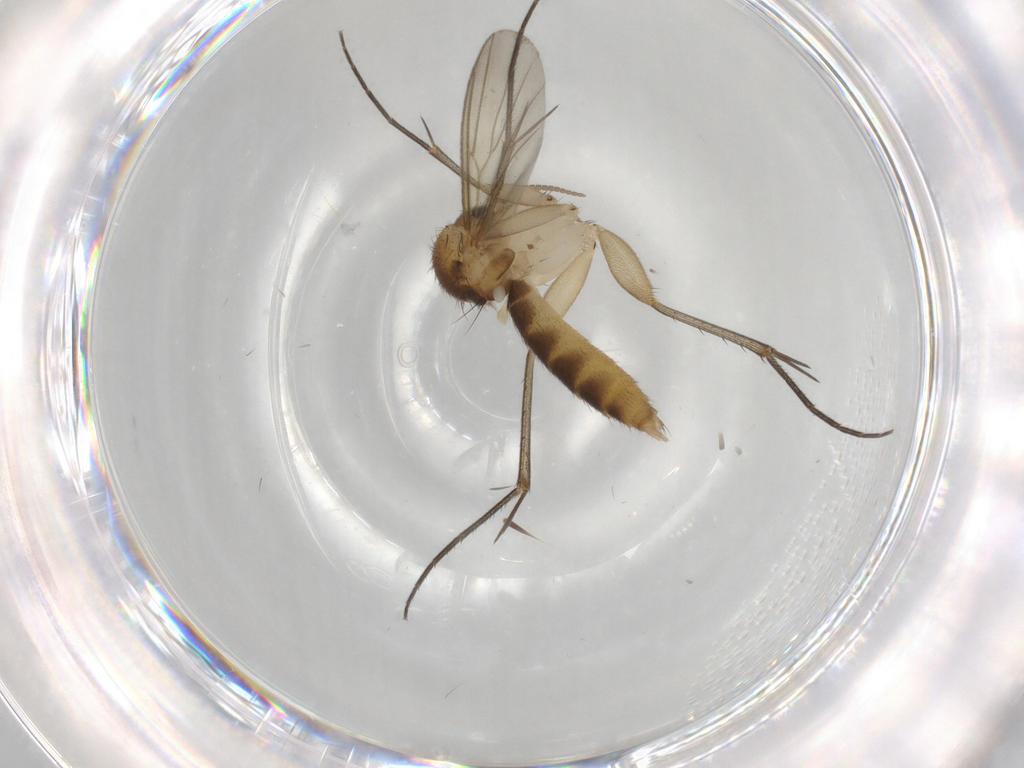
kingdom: Animalia
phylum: Arthropoda
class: Insecta
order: Diptera
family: Mycetophilidae
